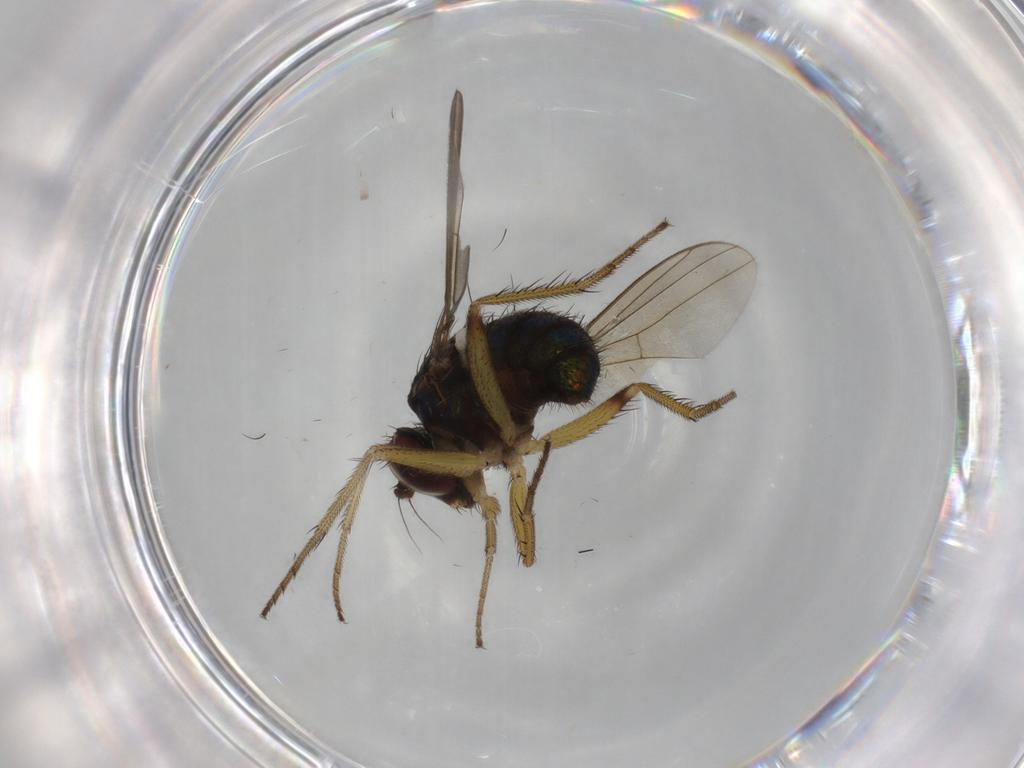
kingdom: Animalia
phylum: Arthropoda
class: Insecta
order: Diptera
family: Dolichopodidae
